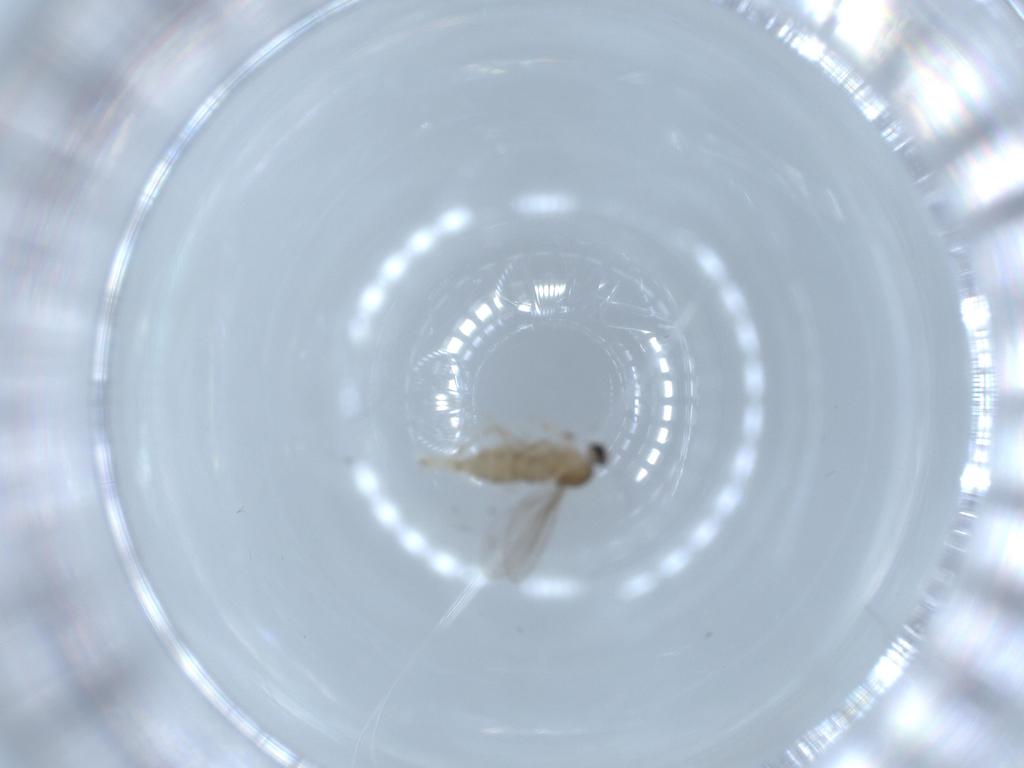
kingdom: Animalia
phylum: Arthropoda
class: Insecta
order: Diptera
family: Cecidomyiidae
